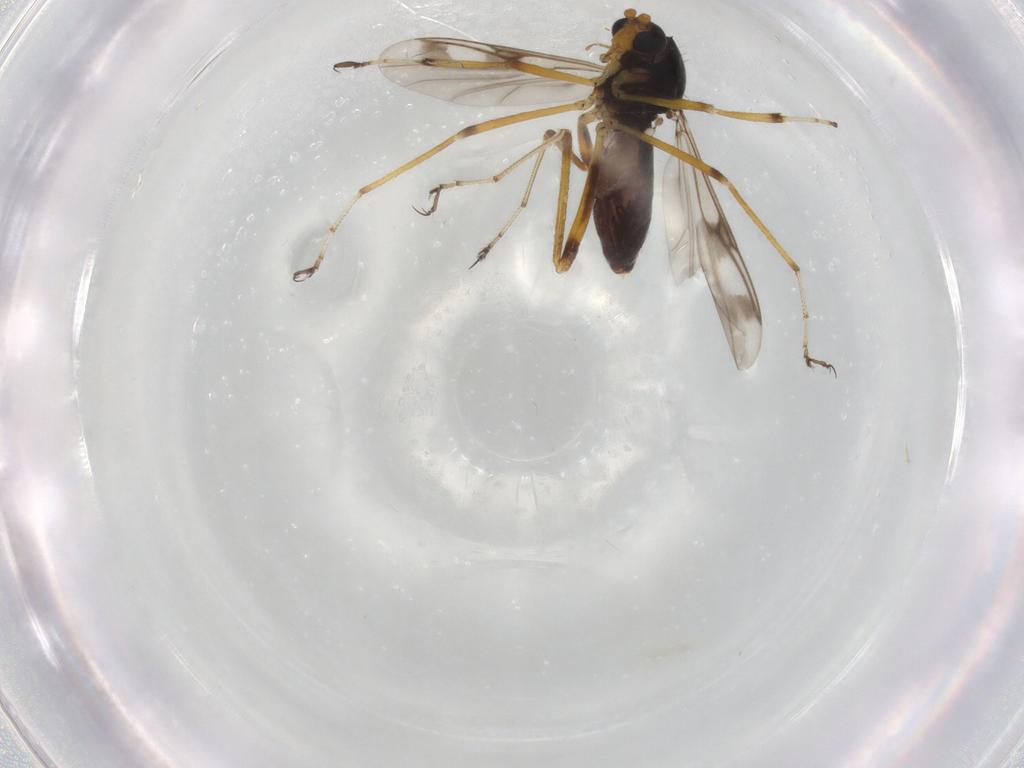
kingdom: Animalia
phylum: Arthropoda
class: Insecta
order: Diptera
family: Ceratopogonidae
